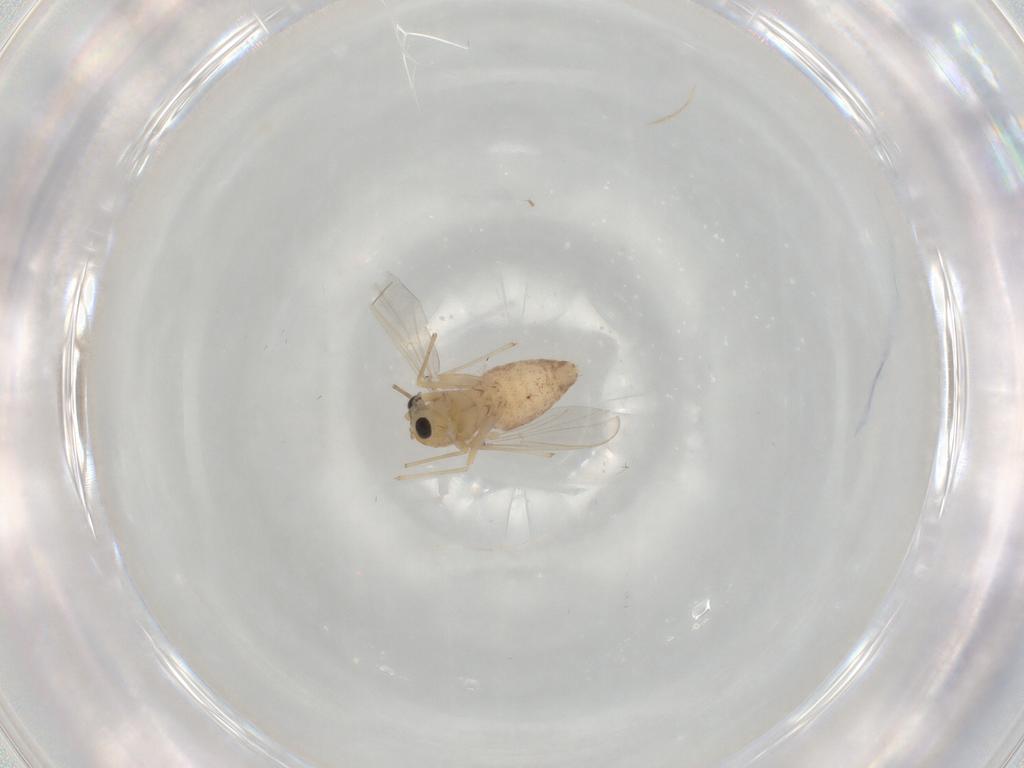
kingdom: Animalia
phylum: Arthropoda
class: Insecta
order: Diptera
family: Chironomidae
